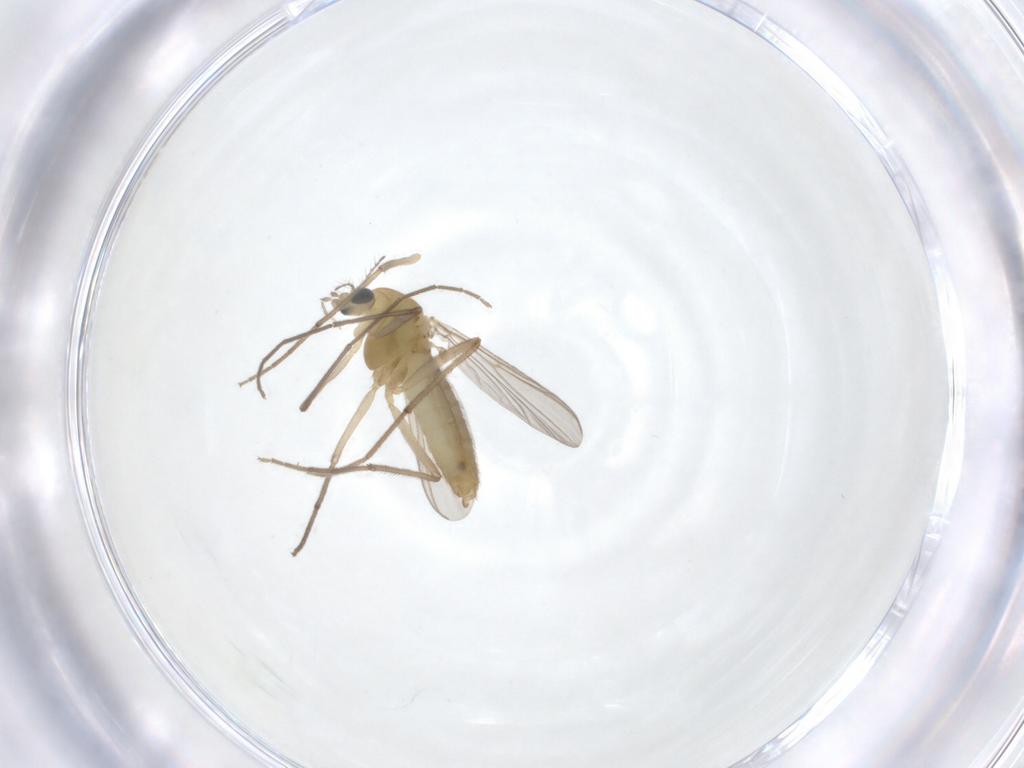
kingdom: Animalia
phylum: Arthropoda
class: Insecta
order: Diptera
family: Chironomidae
